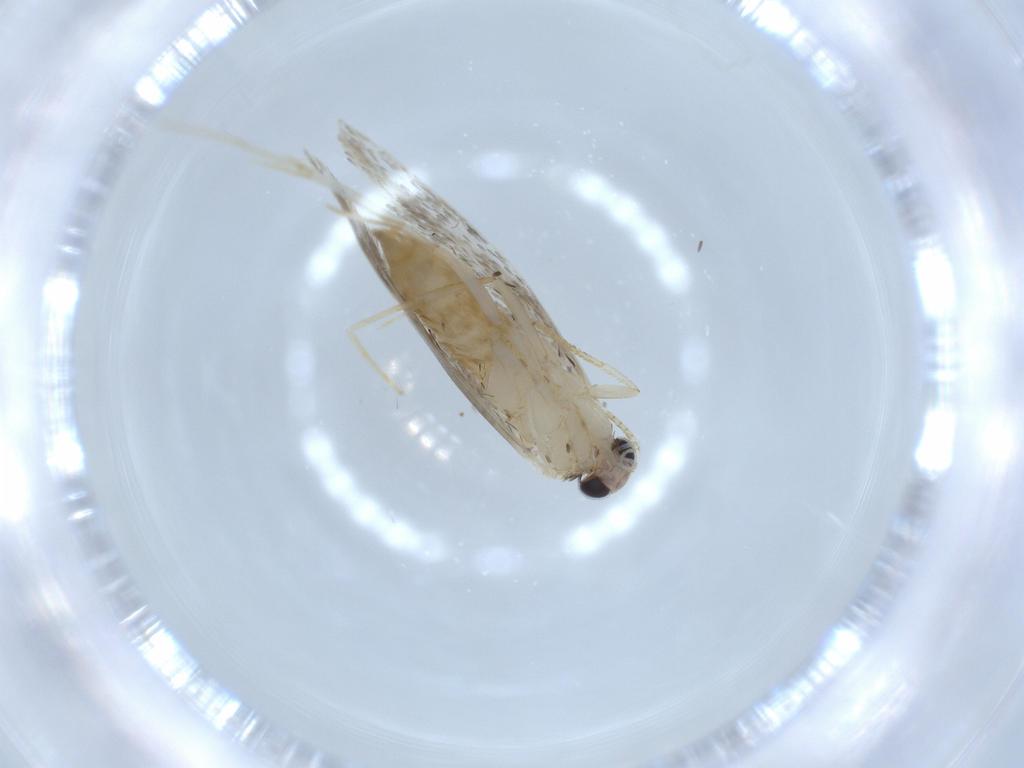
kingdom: Animalia
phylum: Arthropoda
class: Insecta
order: Lepidoptera
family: Tineidae
